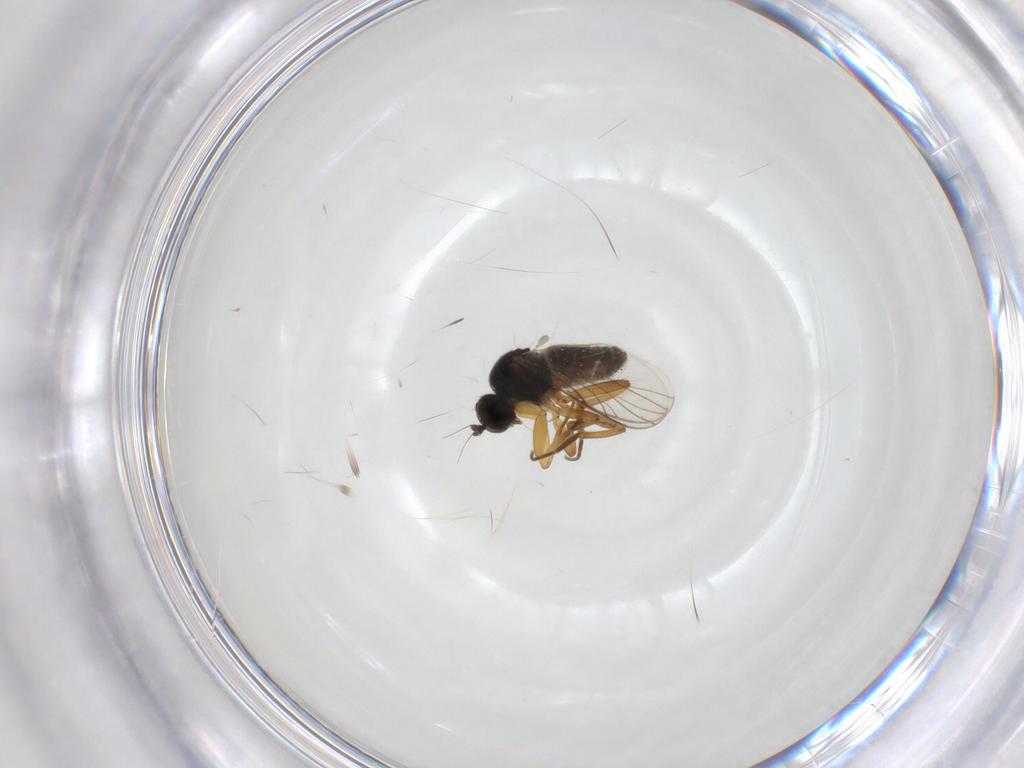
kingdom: Animalia
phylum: Arthropoda
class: Insecta
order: Diptera
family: Hybotidae
